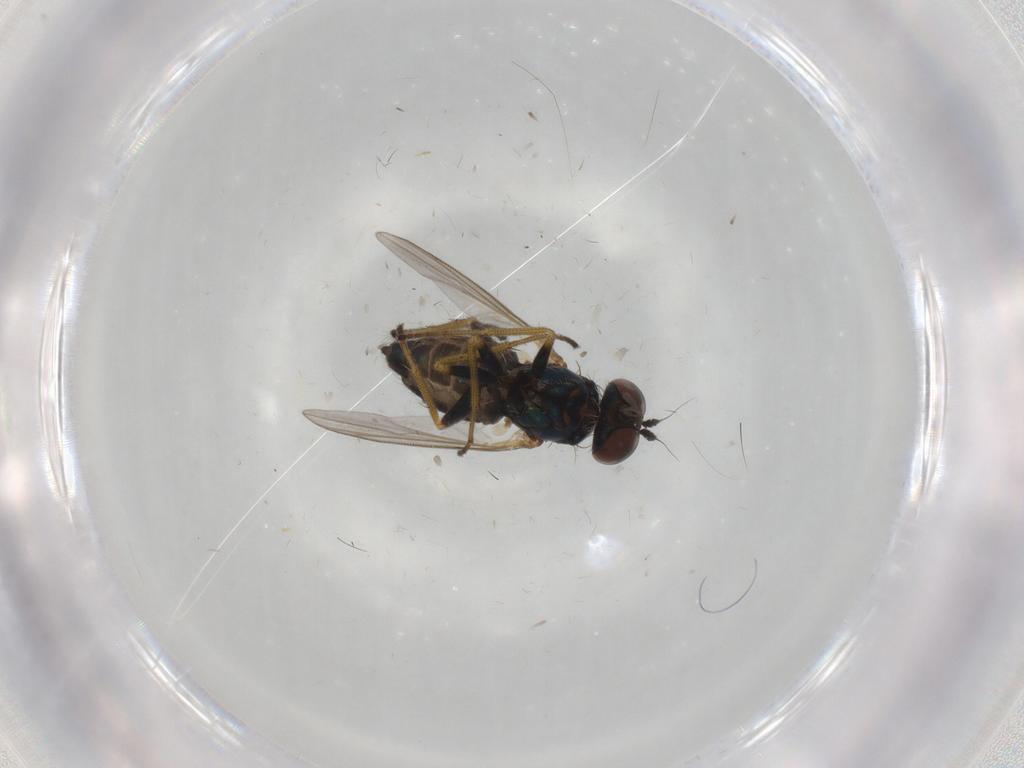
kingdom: Animalia
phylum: Arthropoda
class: Insecta
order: Diptera
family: Dolichopodidae
